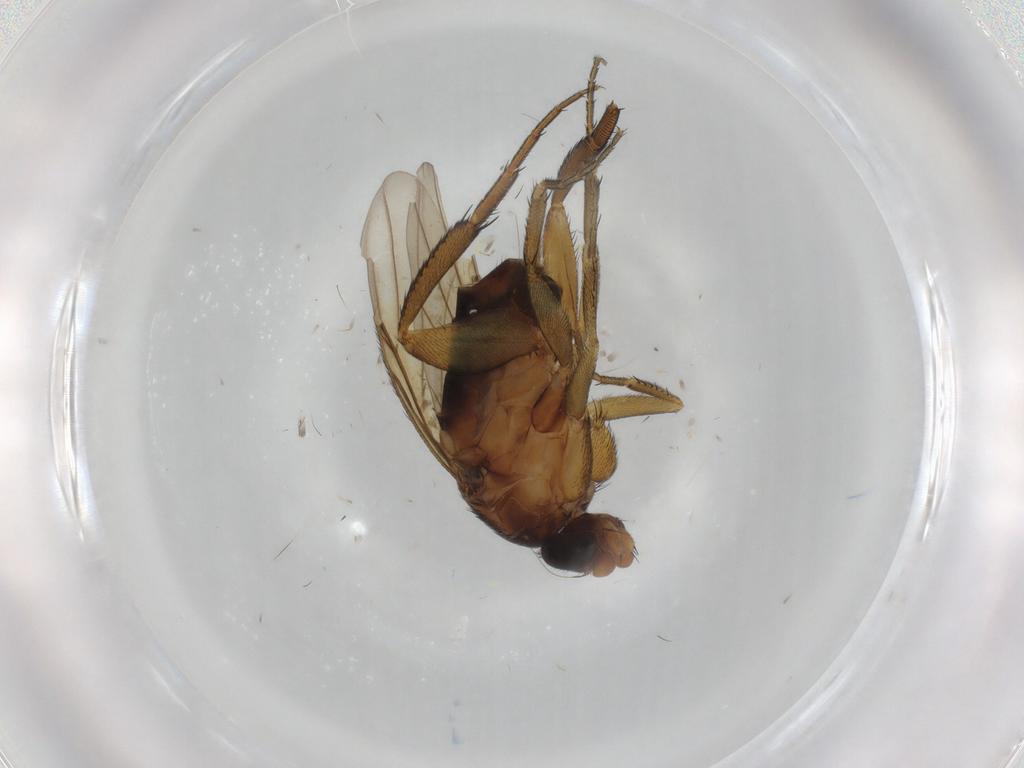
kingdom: Animalia
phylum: Arthropoda
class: Insecta
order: Diptera
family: Phoridae
